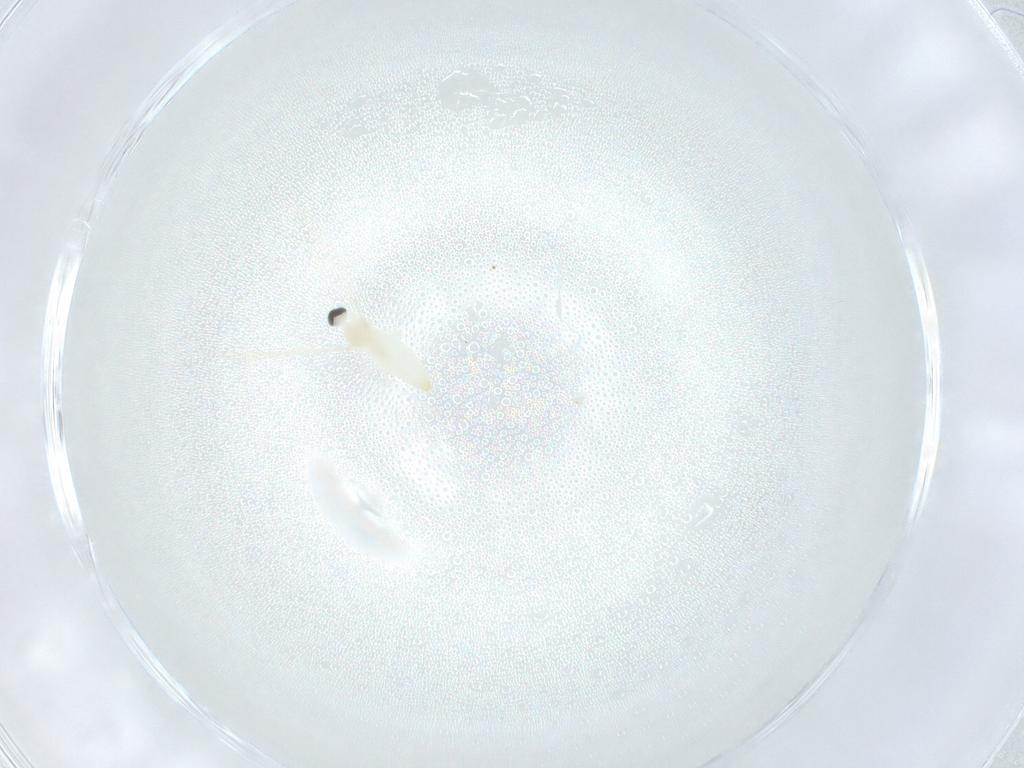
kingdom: Animalia
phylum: Arthropoda
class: Insecta
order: Diptera
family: Cecidomyiidae
